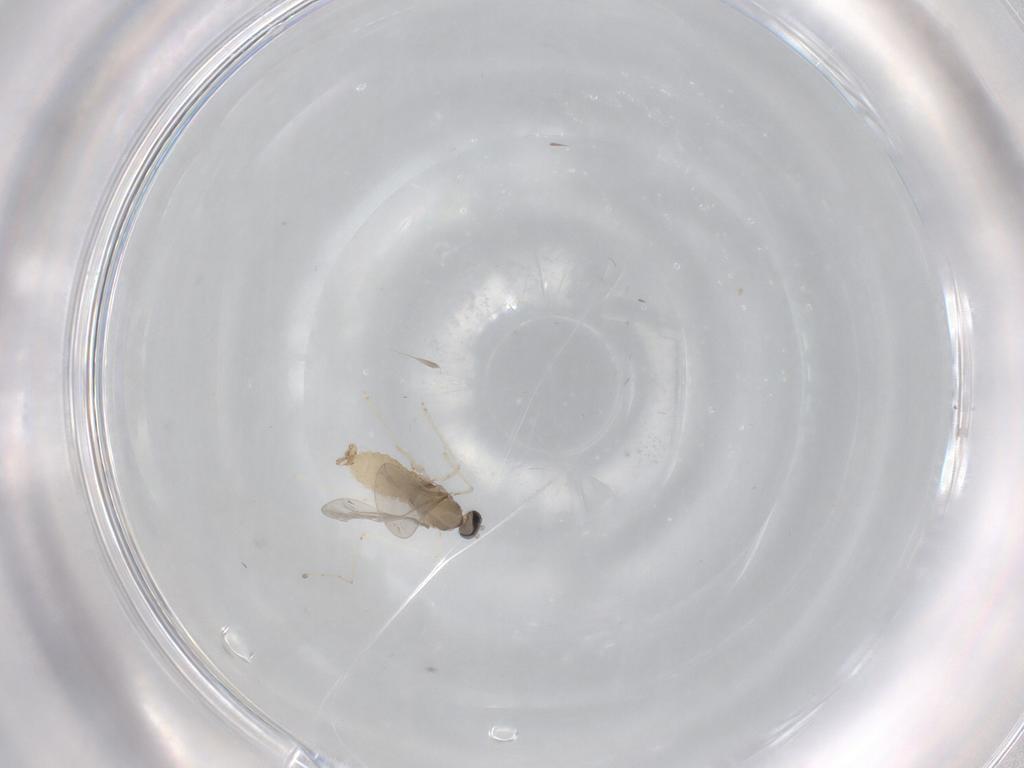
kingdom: Animalia
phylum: Arthropoda
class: Insecta
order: Diptera
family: Cecidomyiidae
